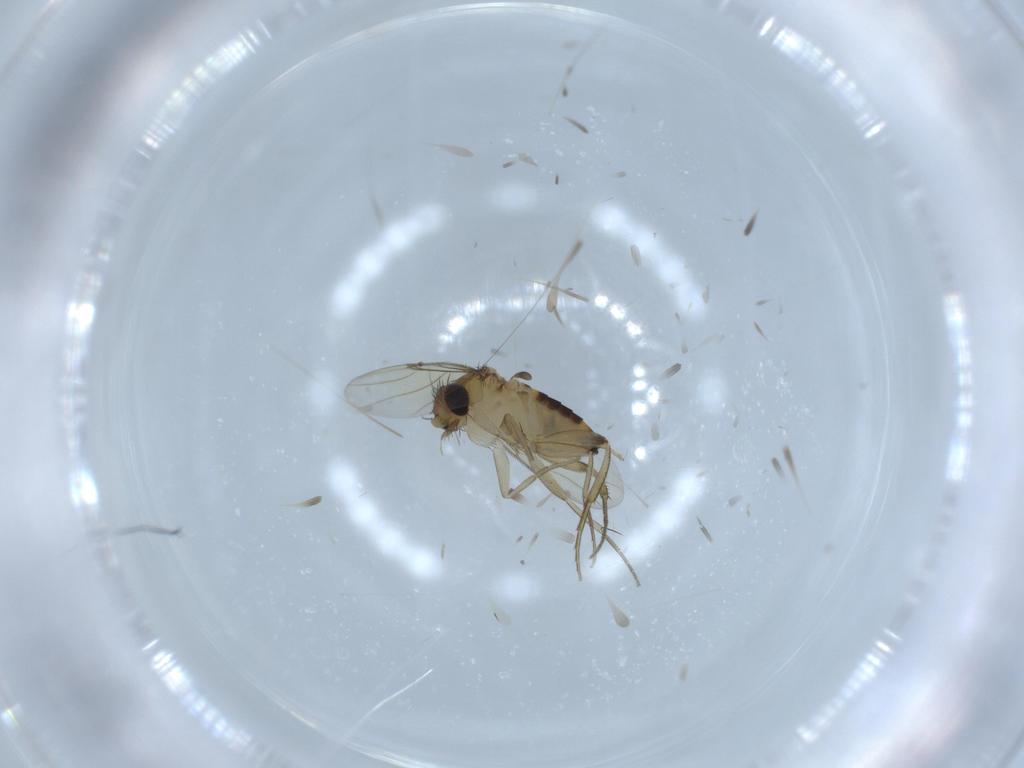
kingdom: Animalia
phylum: Arthropoda
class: Insecta
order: Diptera
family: Phoridae
